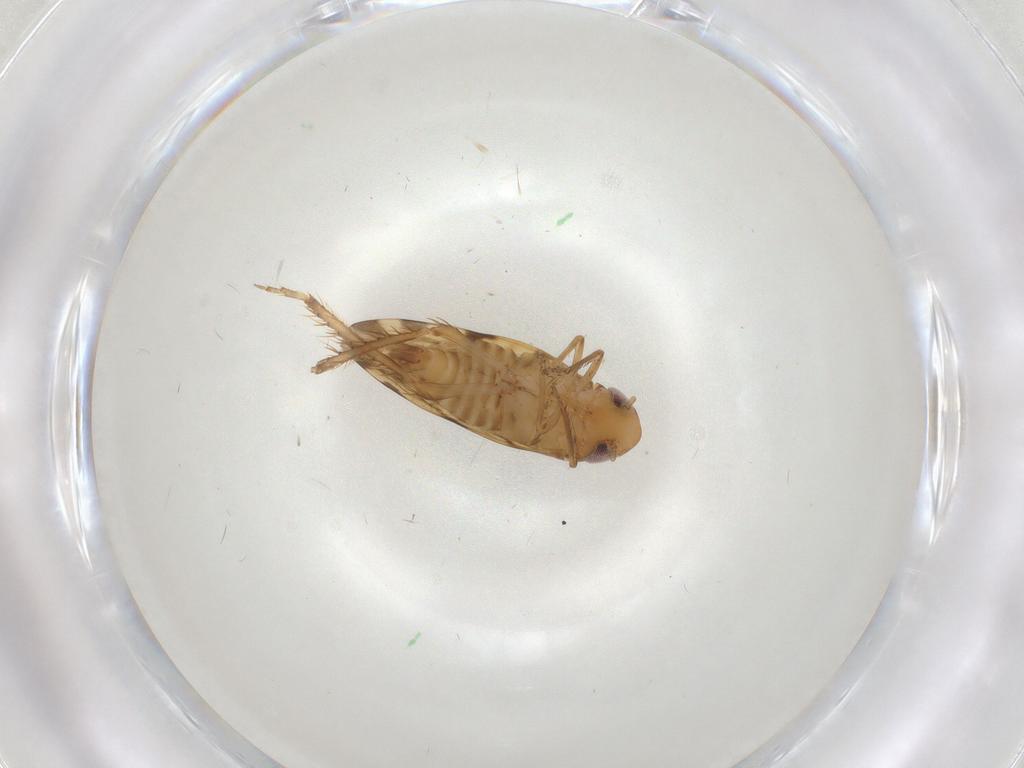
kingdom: Animalia
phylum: Arthropoda
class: Insecta
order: Hemiptera
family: Cicadellidae
